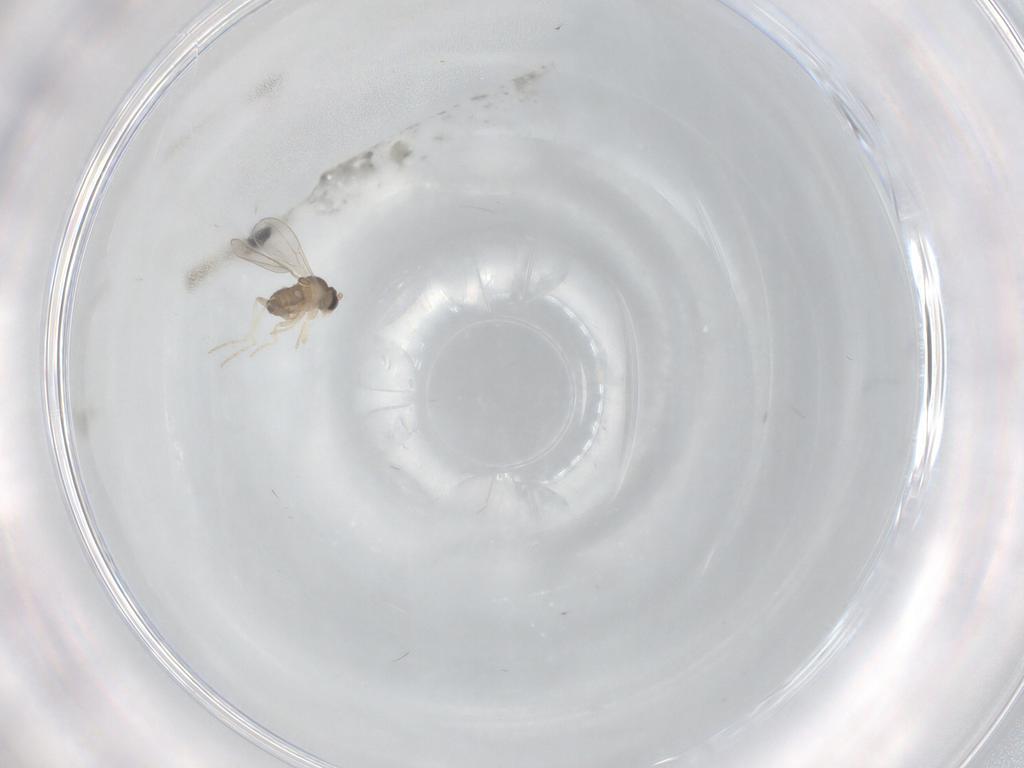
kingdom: Animalia
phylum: Arthropoda
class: Insecta
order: Diptera
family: Cecidomyiidae
